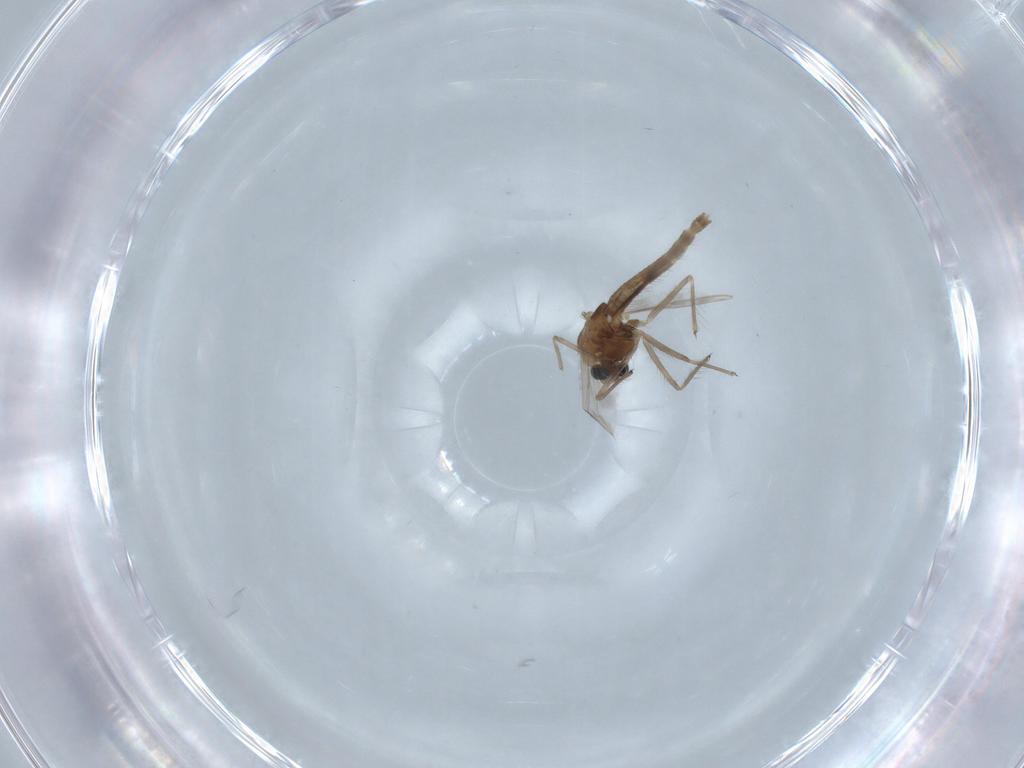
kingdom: Animalia
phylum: Arthropoda
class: Insecta
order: Diptera
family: Chironomidae
